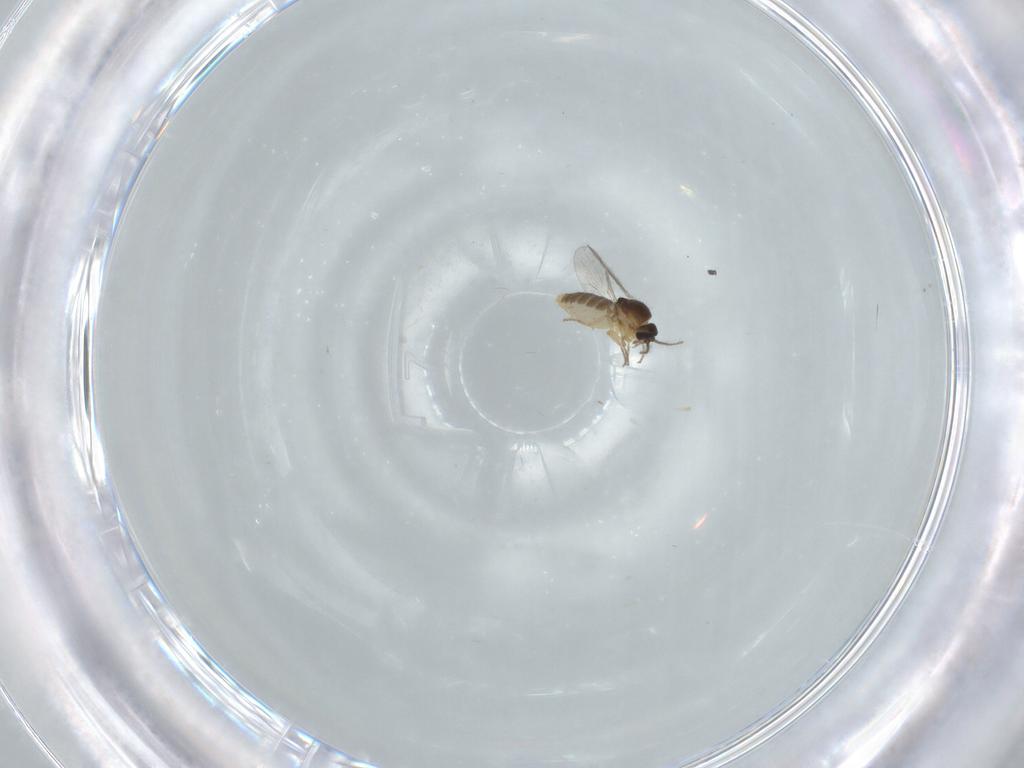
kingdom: Animalia
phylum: Arthropoda
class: Insecta
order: Diptera
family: Ceratopogonidae
